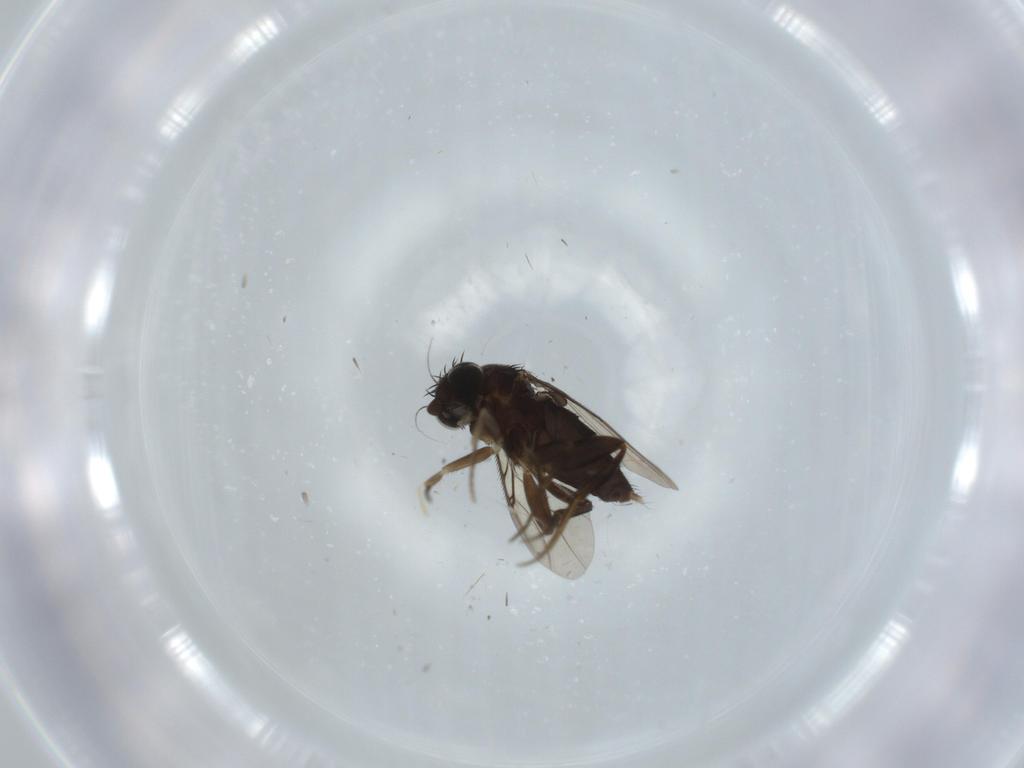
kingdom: Animalia
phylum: Arthropoda
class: Insecta
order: Diptera
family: Phoridae
